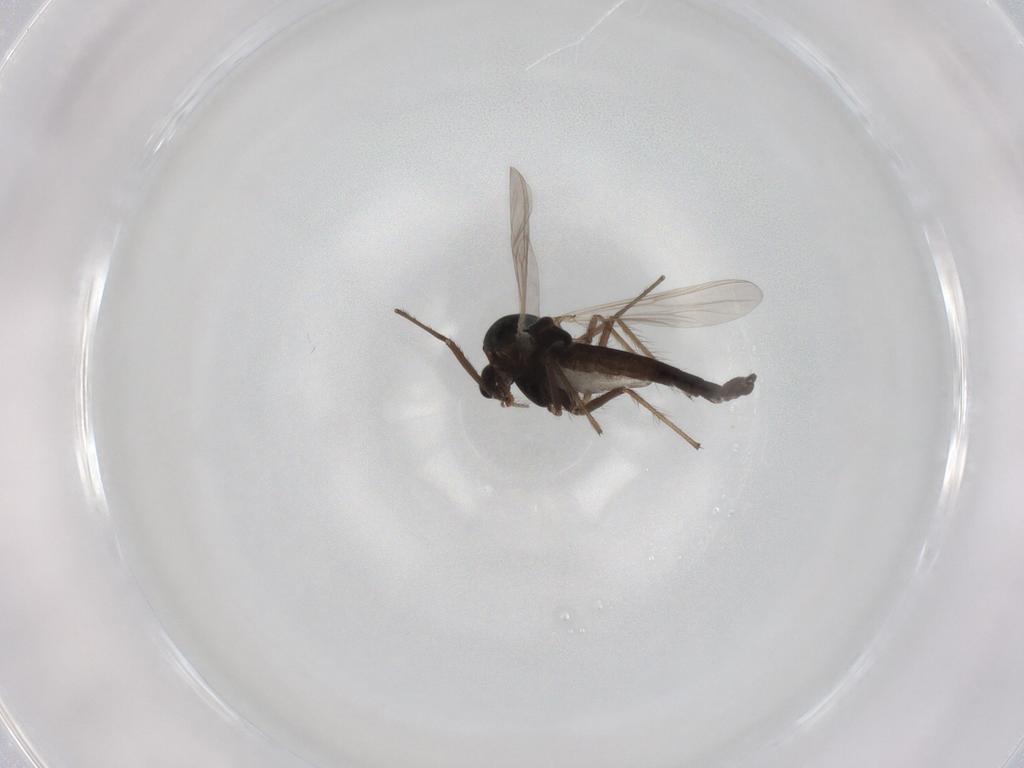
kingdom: Animalia
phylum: Arthropoda
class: Insecta
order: Diptera
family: Chironomidae
